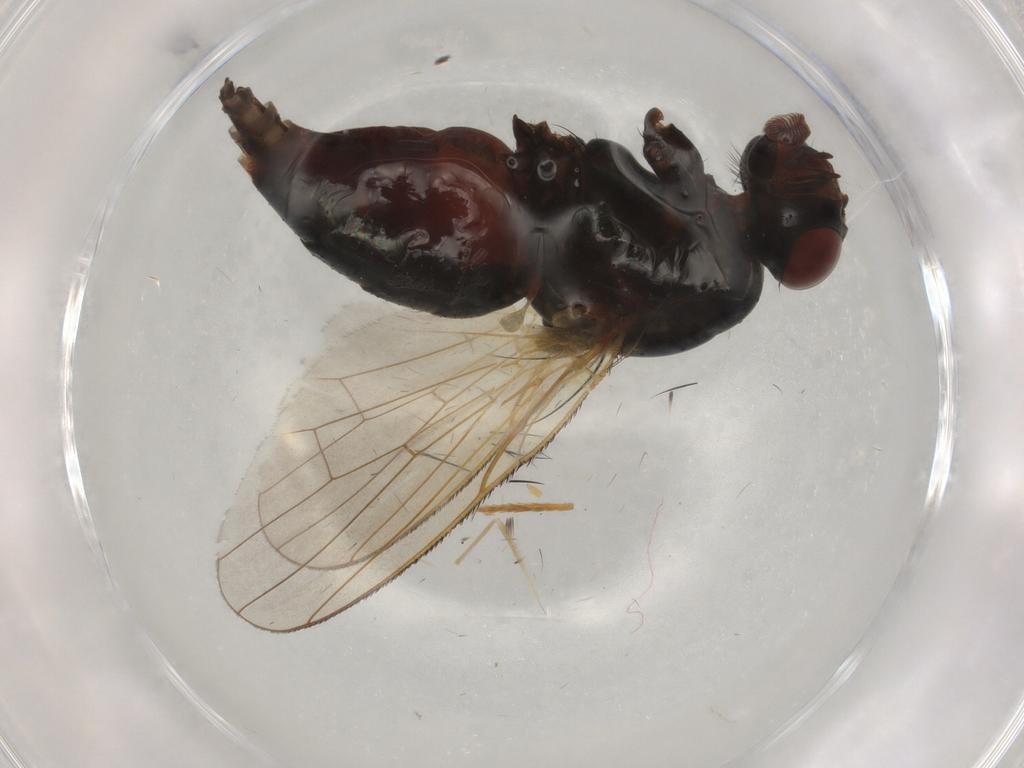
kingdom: Animalia
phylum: Arthropoda
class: Insecta
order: Diptera
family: Anthomyiidae
